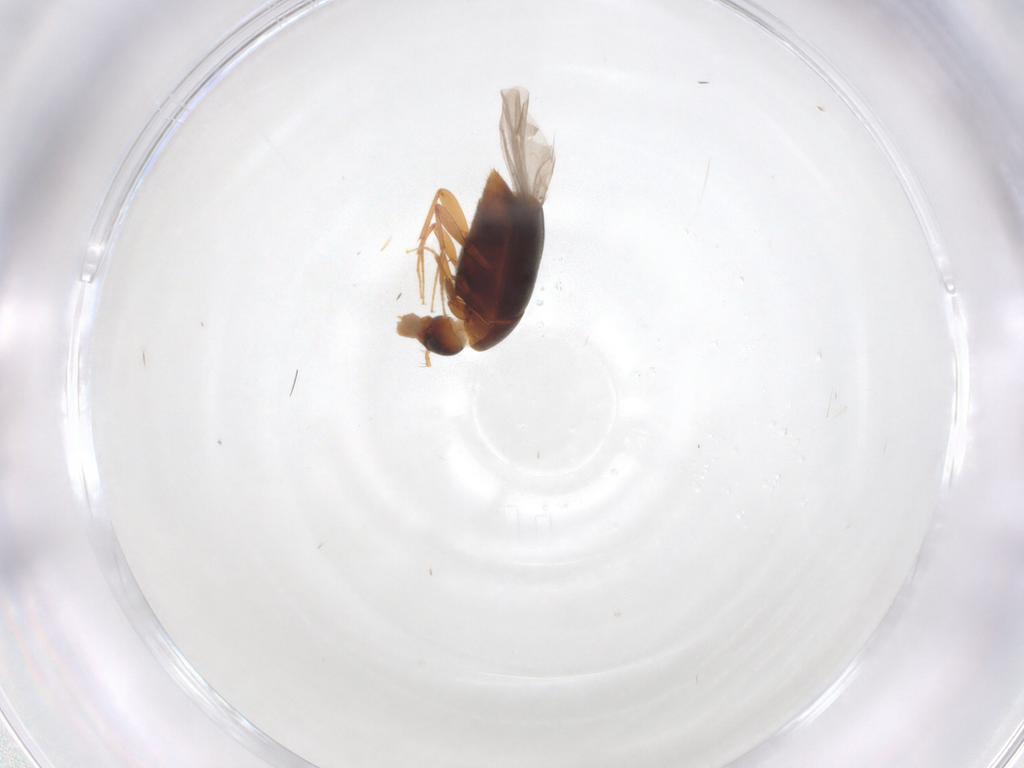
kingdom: Animalia
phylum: Arthropoda
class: Insecta
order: Coleoptera
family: Staphylinidae
